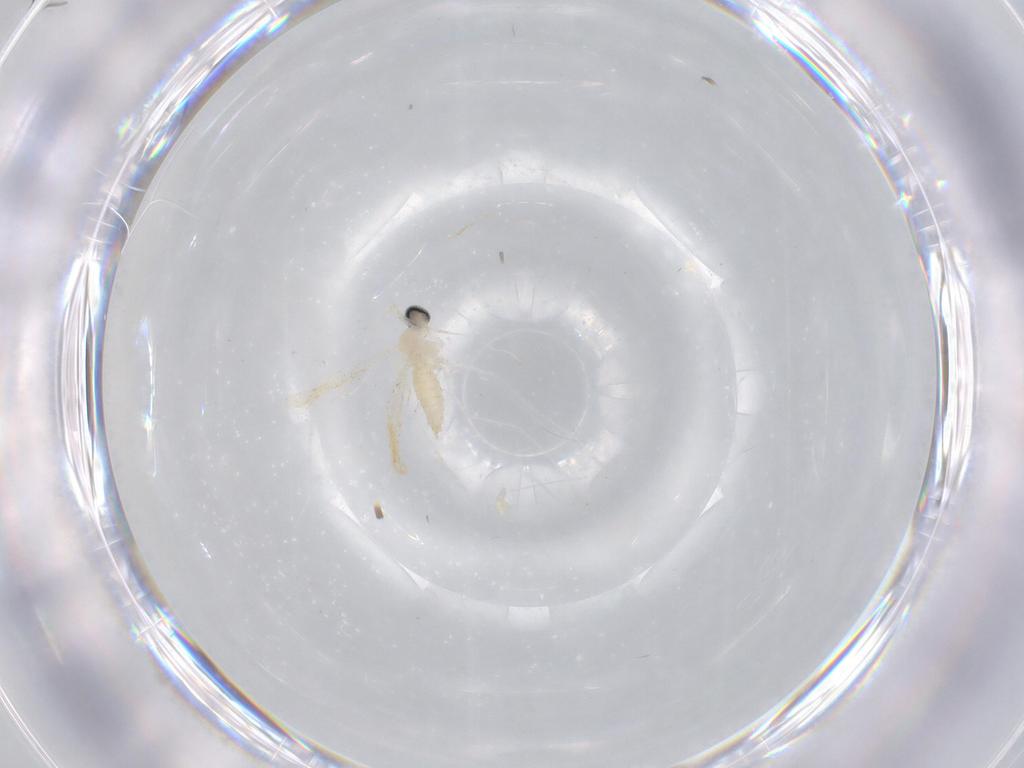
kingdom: Animalia
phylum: Arthropoda
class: Insecta
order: Diptera
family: Cecidomyiidae
